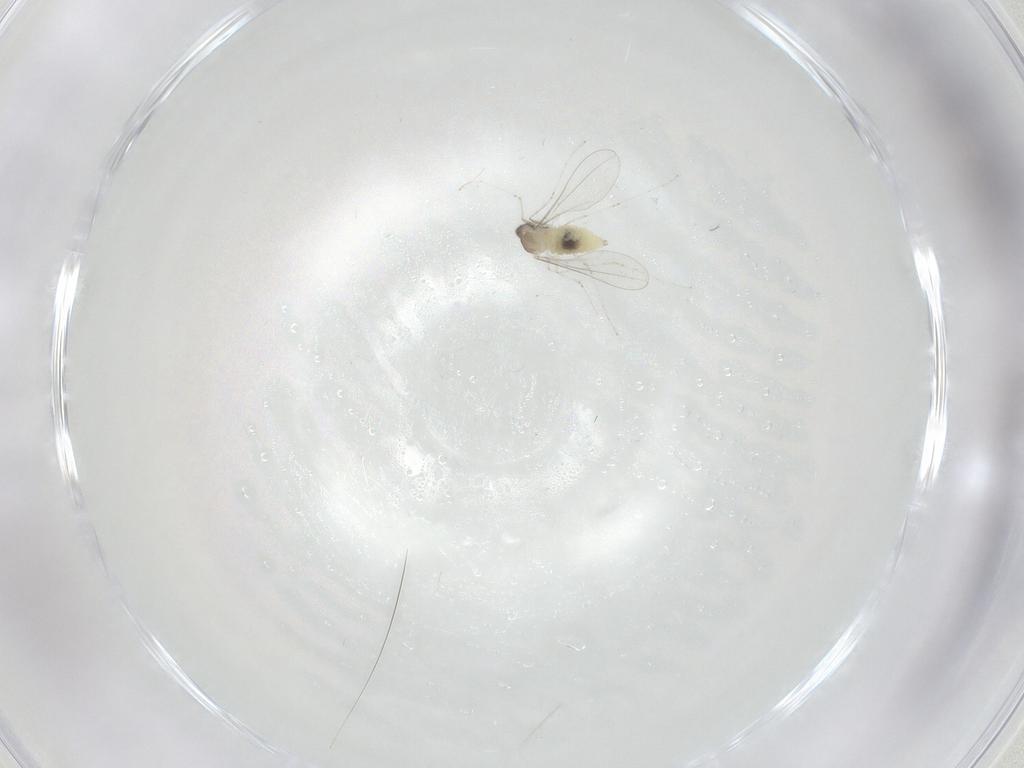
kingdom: Animalia
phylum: Arthropoda
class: Insecta
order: Diptera
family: Cecidomyiidae
